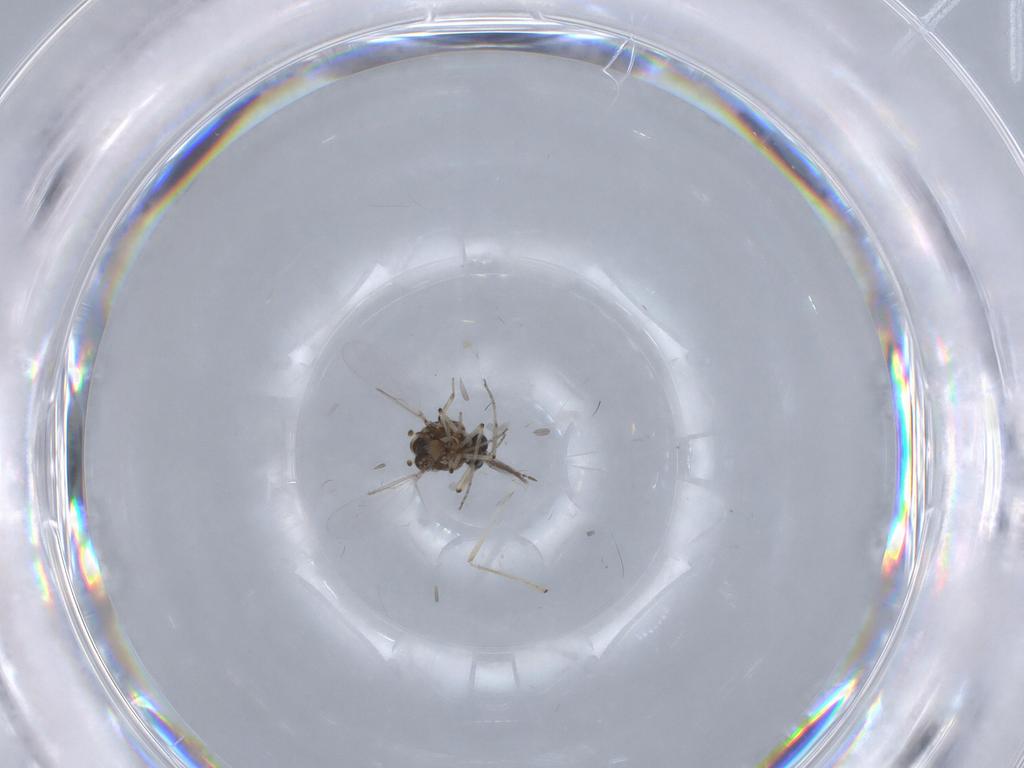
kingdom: Animalia
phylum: Arthropoda
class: Insecta
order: Diptera
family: Chironomidae
